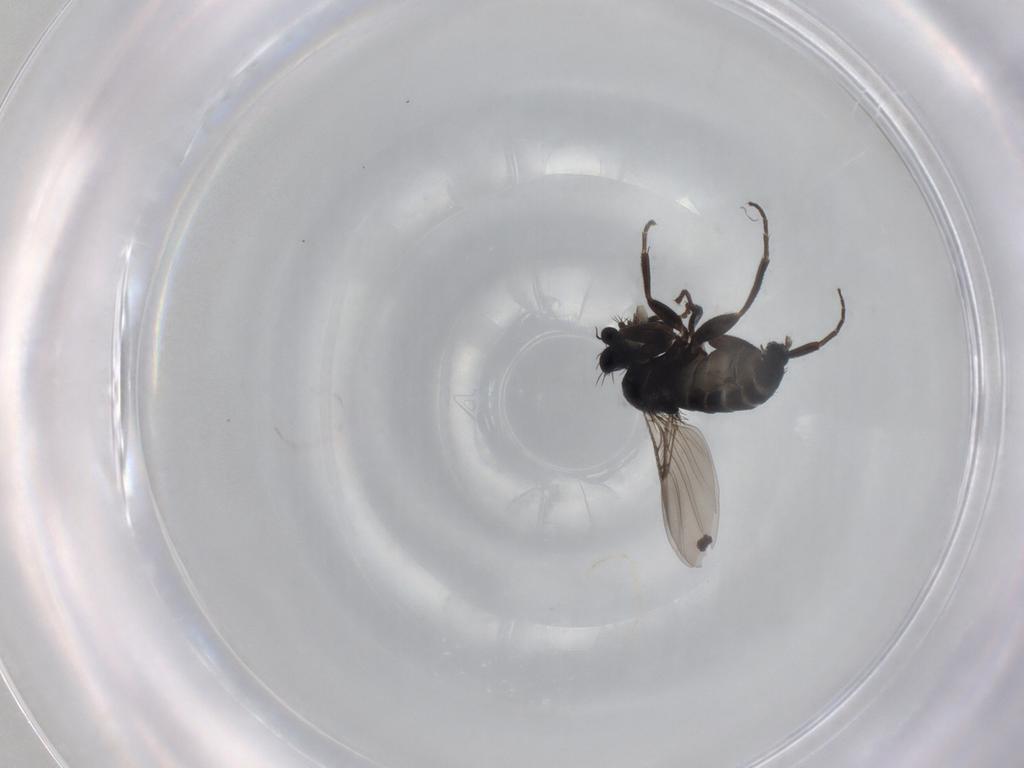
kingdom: Animalia
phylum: Arthropoda
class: Insecta
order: Diptera
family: Phoridae
